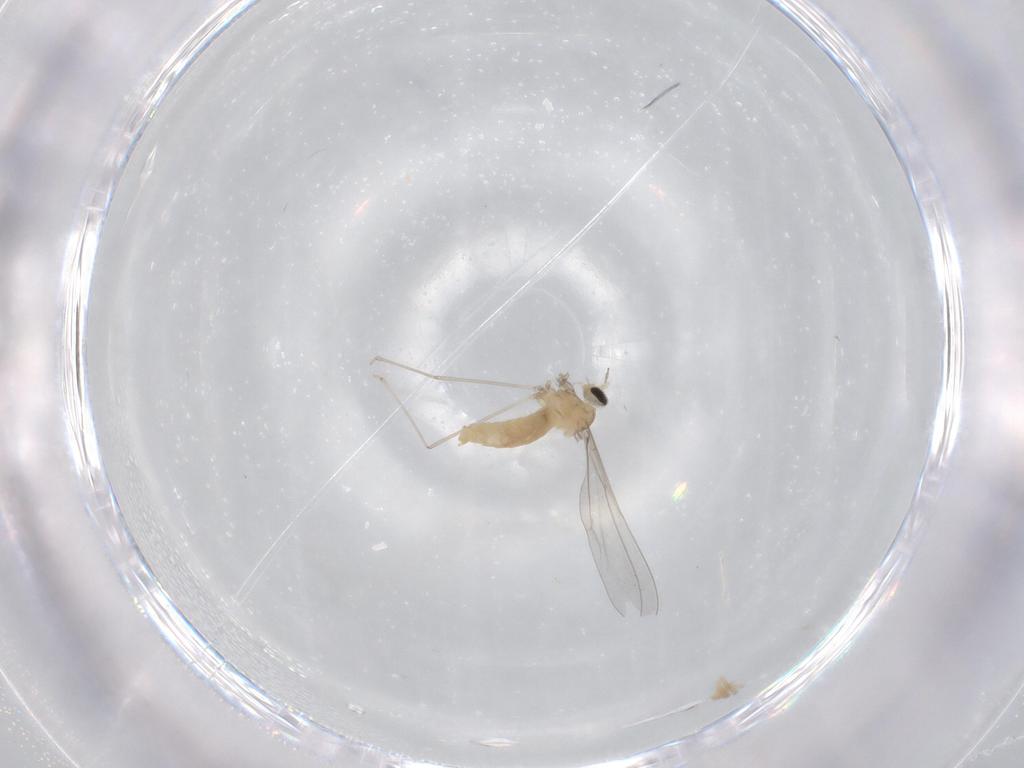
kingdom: Animalia
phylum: Arthropoda
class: Insecta
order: Diptera
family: Cecidomyiidae
